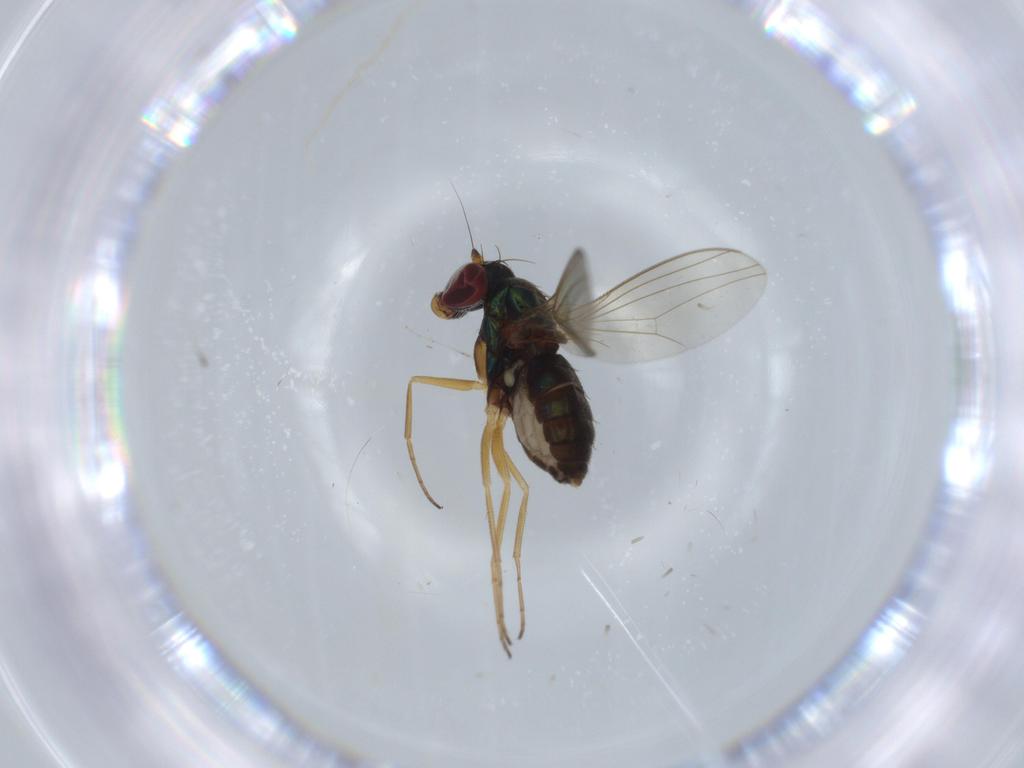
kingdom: Animalia
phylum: Arthropoda
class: Insecta
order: Diptera
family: Dolichopodidae
